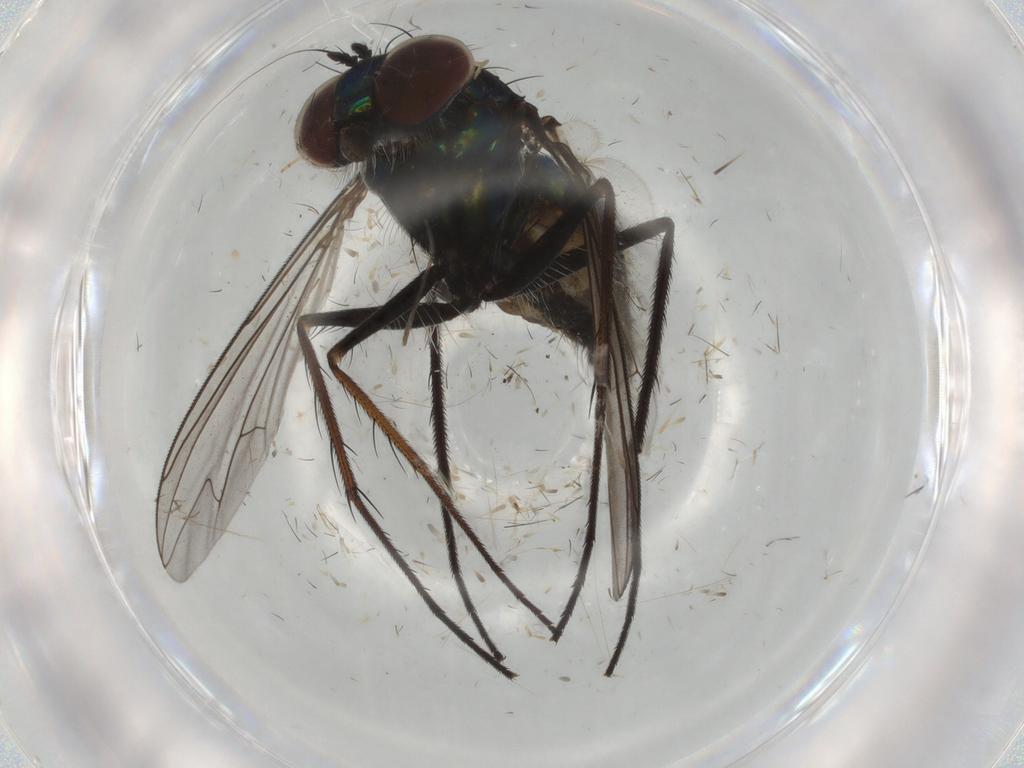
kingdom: Animalia
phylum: Arthropoda
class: Insecta
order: Diptera
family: Dolichopodidae
